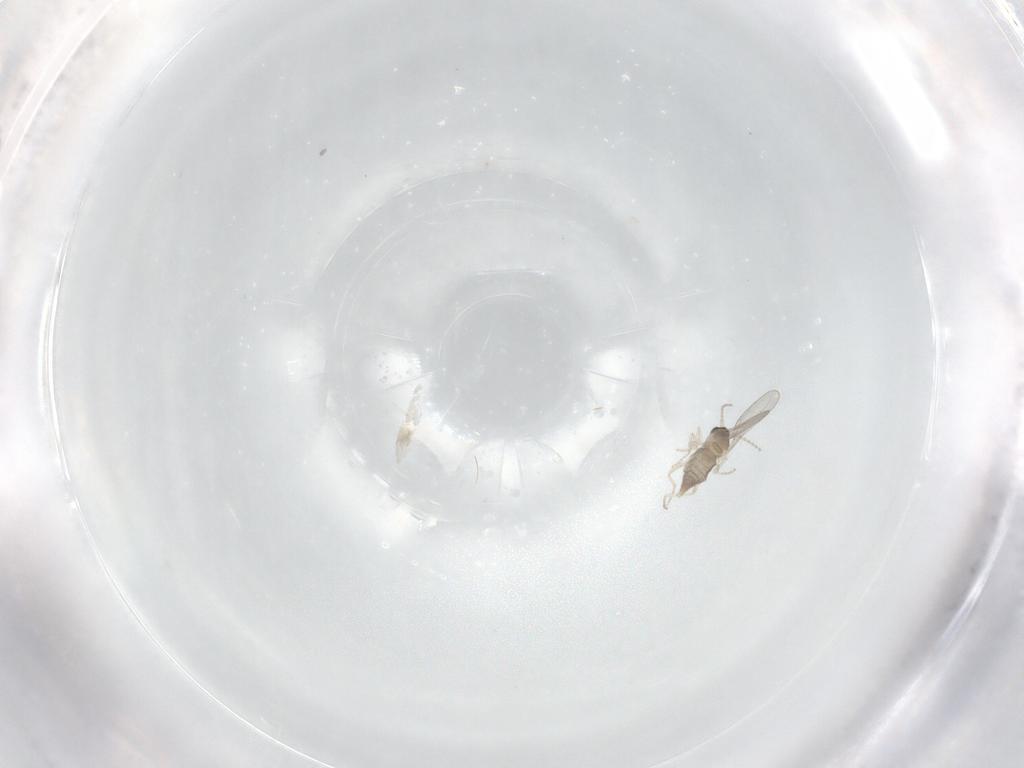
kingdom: Animalia
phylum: Arthropoda
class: Insecta
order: Diptera
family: Cecidomyiidae
